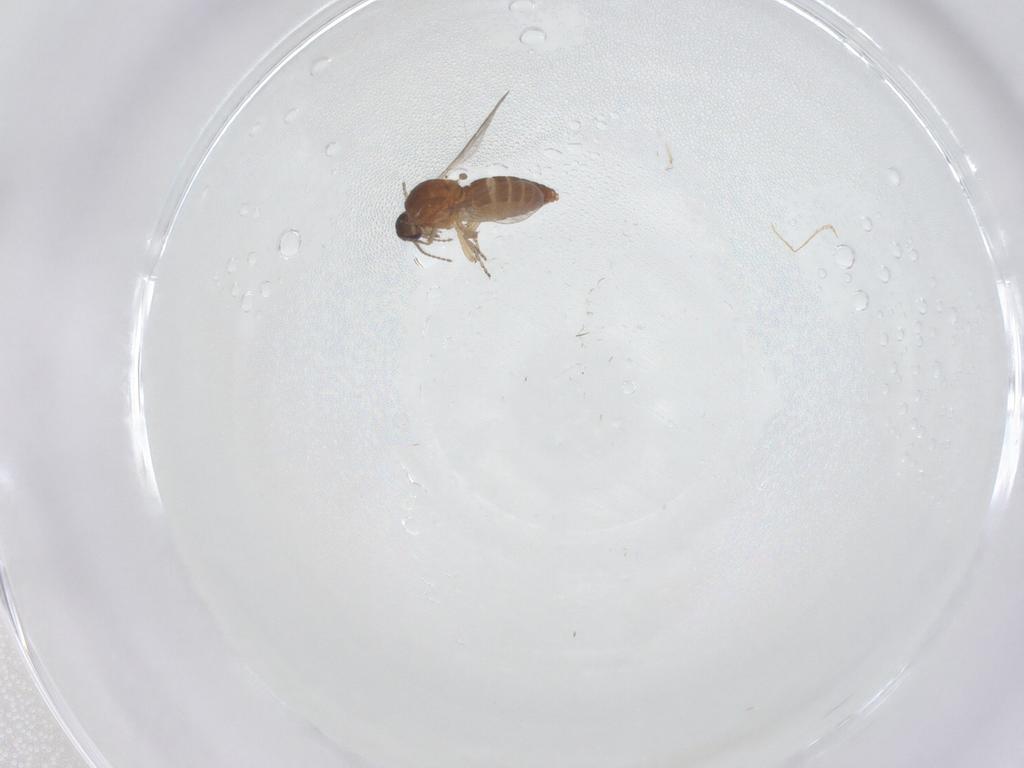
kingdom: Animalia
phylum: Arthropoda
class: Insecta
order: Diptera
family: Ceratopogonidae
